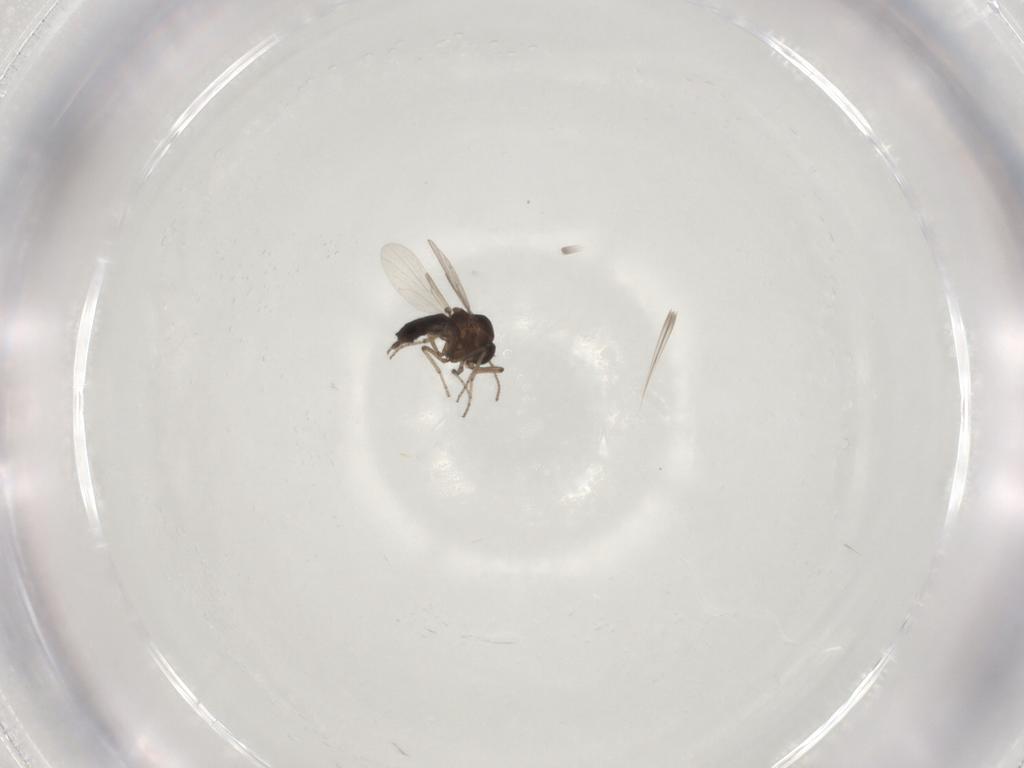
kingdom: Animalia
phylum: Arthropoda
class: Insecta
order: Diptera
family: Ceratopogonidae
